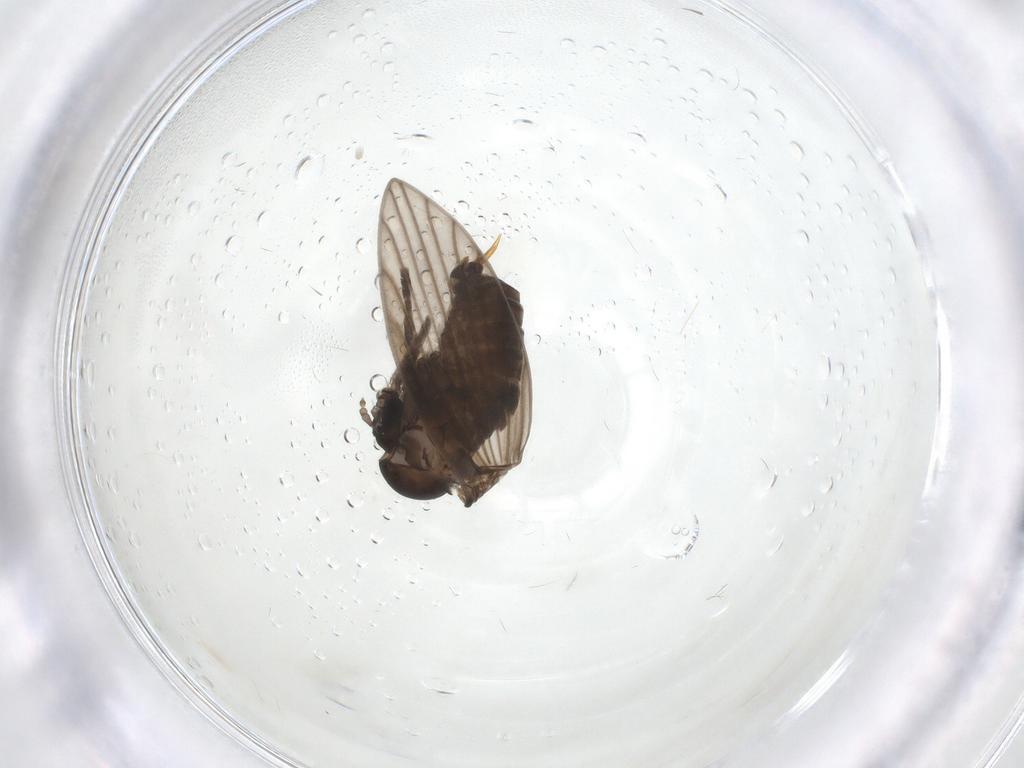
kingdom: Animalia
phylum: Arthropoda
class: Insecta
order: Diptera
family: Psychodidae
